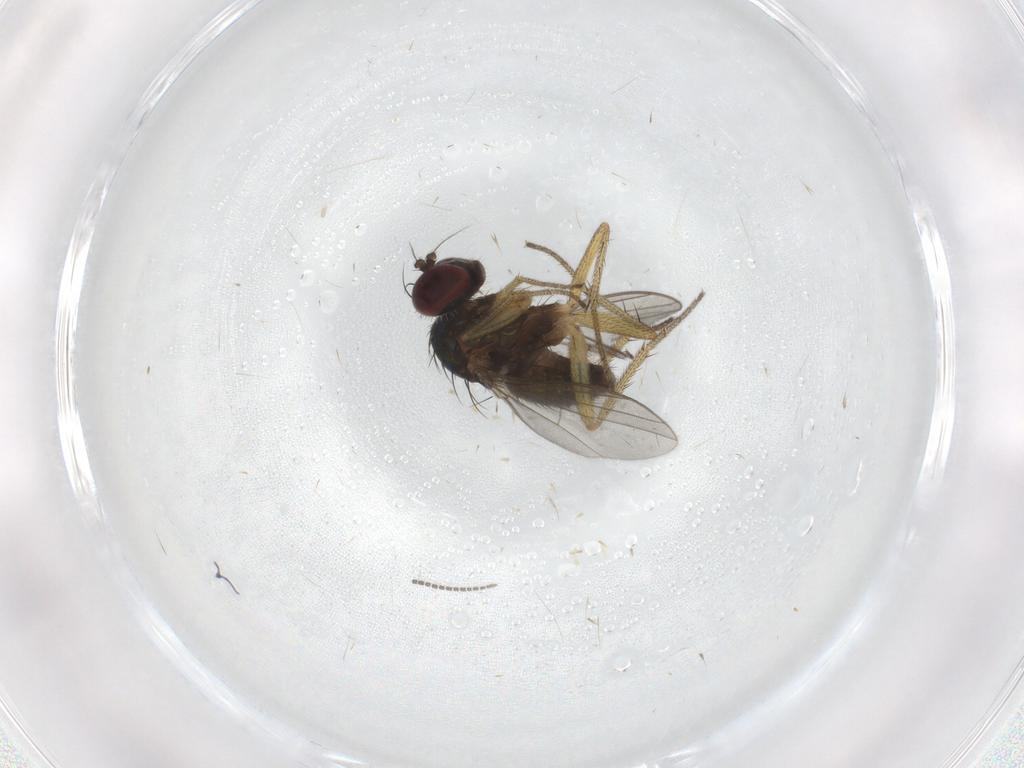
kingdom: Animalia
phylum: Arthropoda
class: Insecta
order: Diptera
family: Sciaridae
